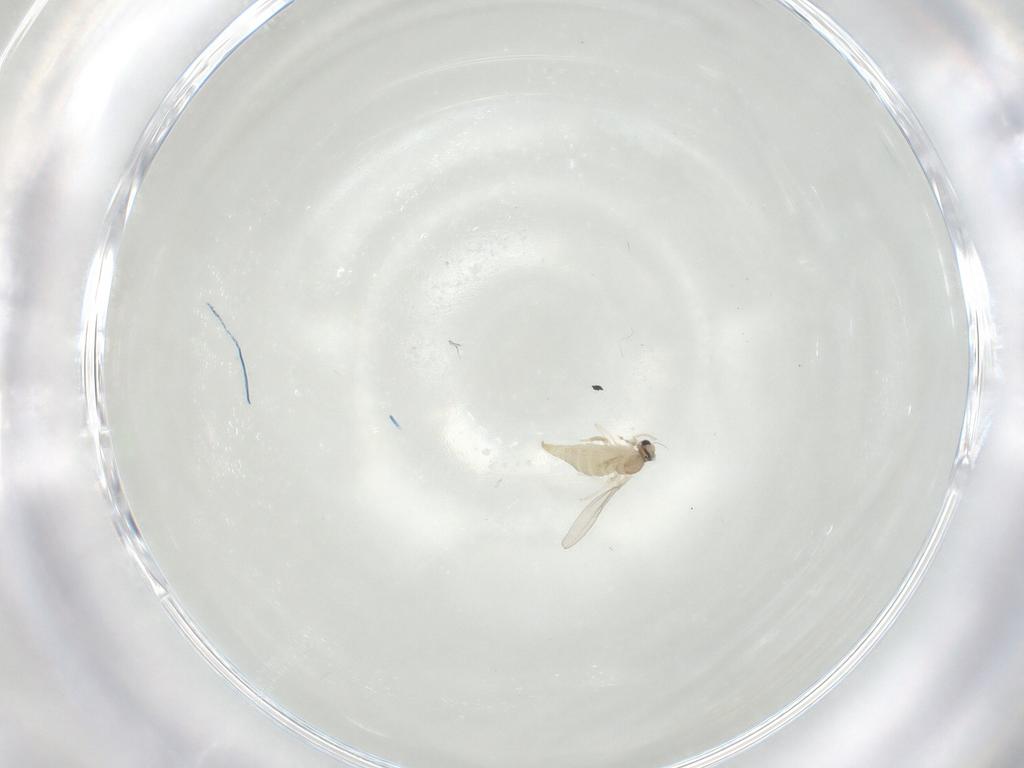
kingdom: Animalia
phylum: Arthropoda
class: Insecta
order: Diptera
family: Cecidomyiidae
